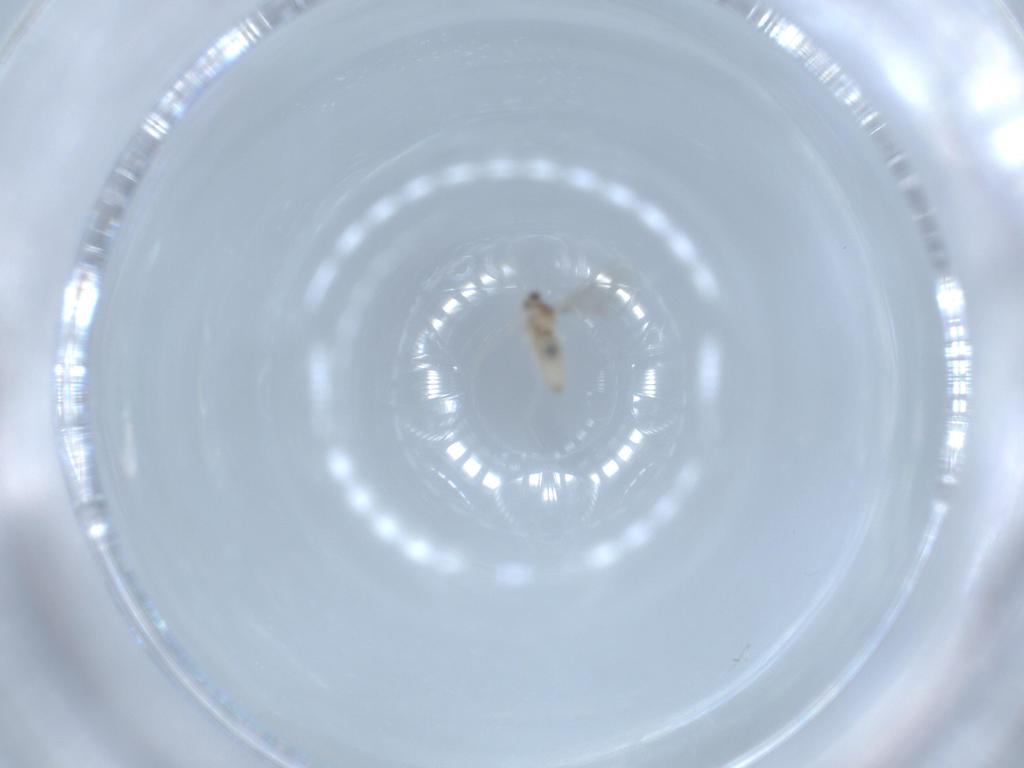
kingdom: Animalia
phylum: Arthropoda
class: Insecta
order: Diptera
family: Cecidomyiidae
